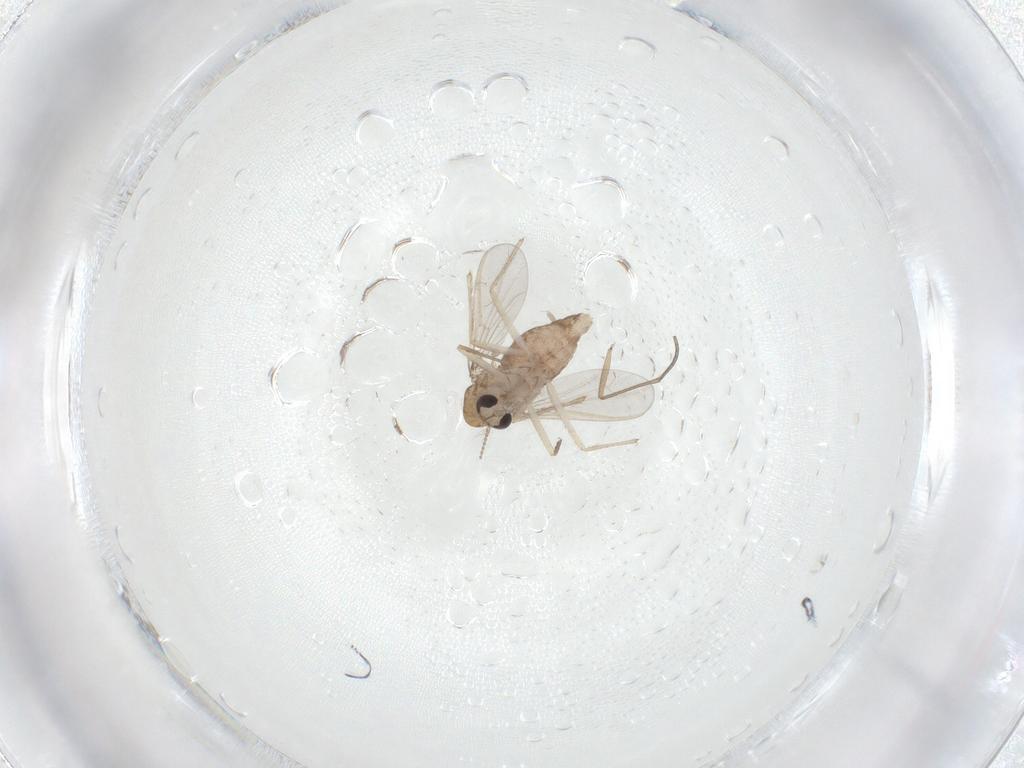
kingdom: Animalia
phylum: Arthropoda
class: Insecta
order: Diptera
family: Chironomidae
